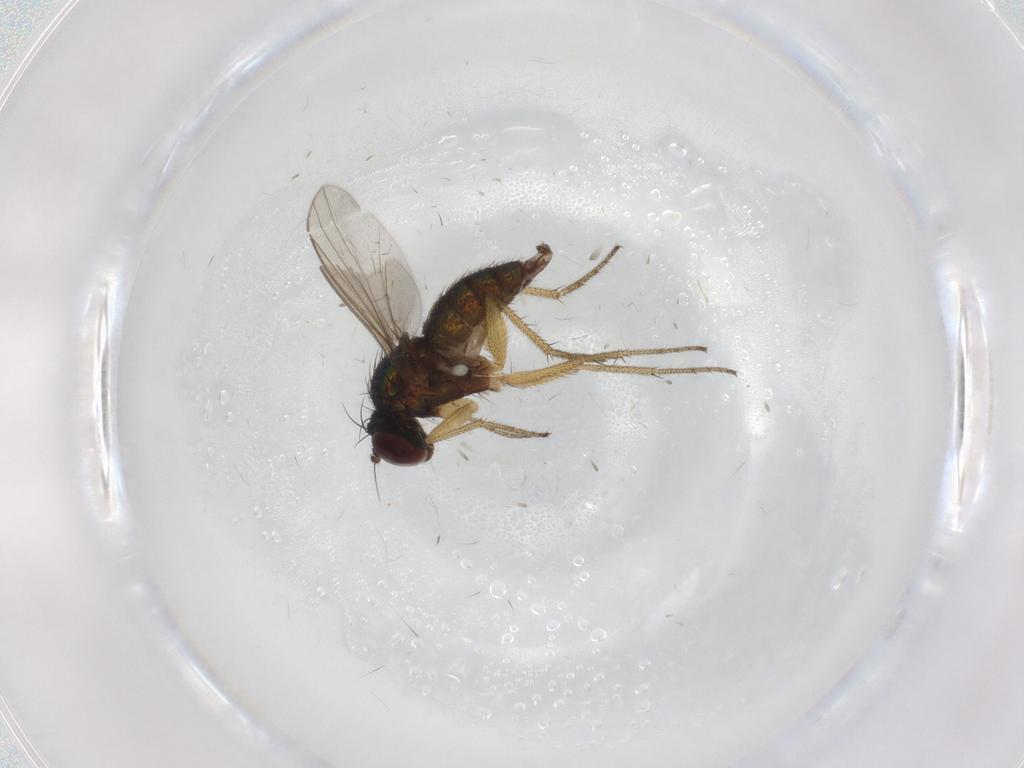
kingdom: Animalia
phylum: Arthropoda
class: Insecta
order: Diptera
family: Dolichopodidae
